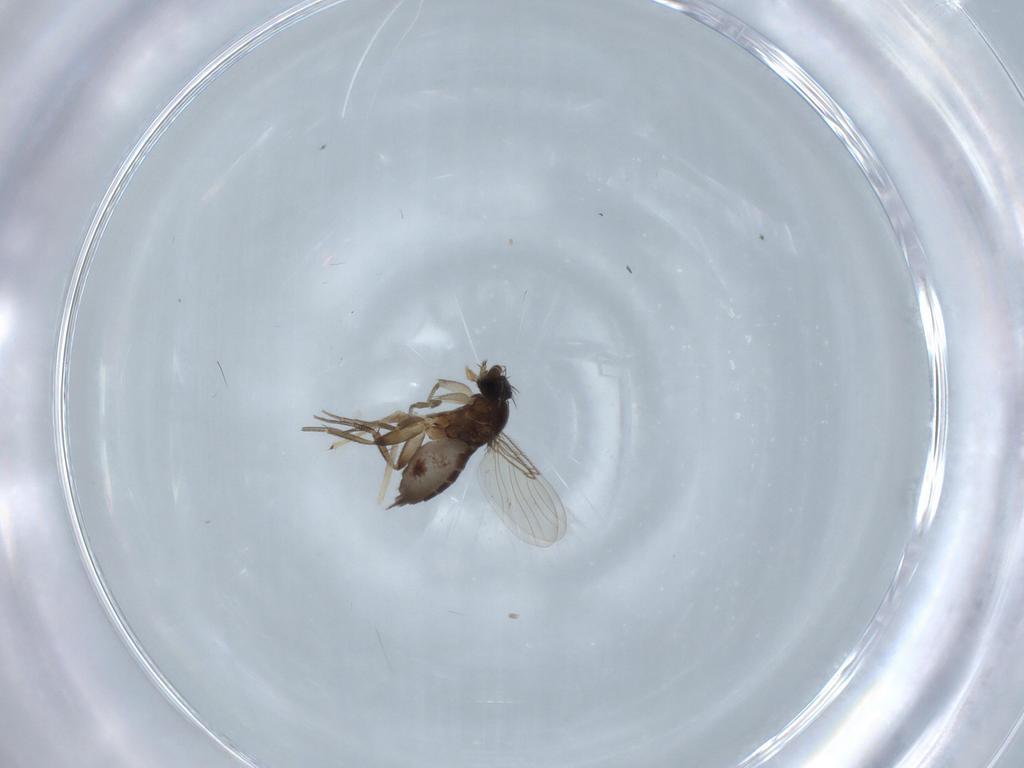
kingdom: Animalia
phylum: Arthropoda
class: Insecta
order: Diptera
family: Phoridae
